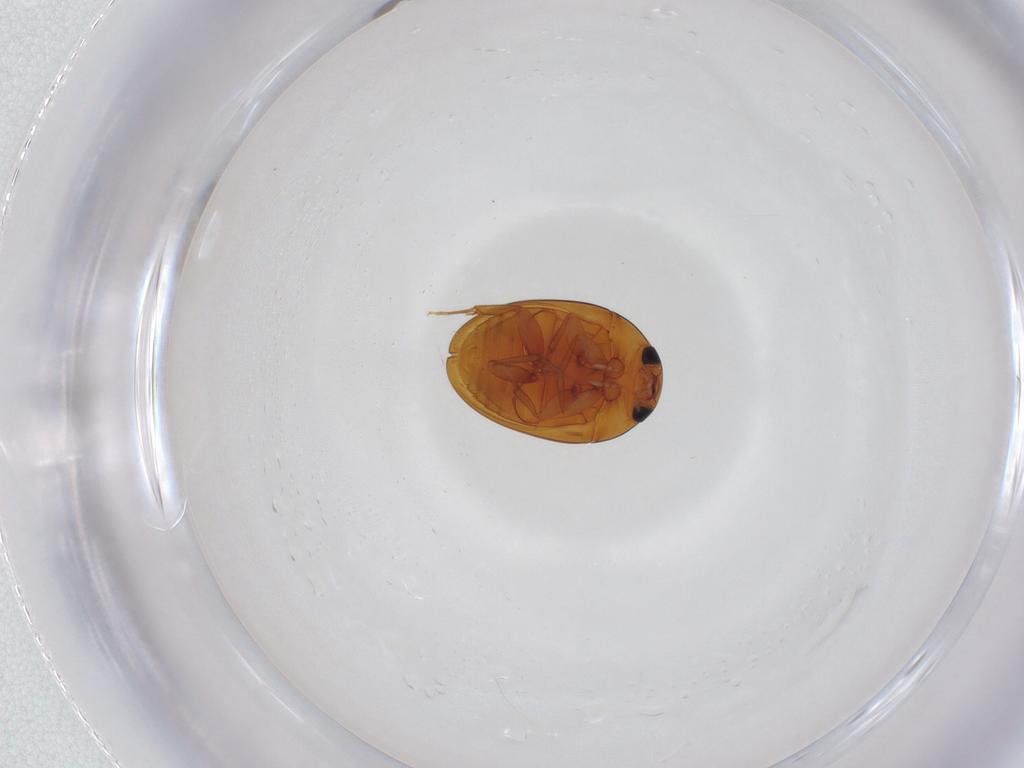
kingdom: Animalia
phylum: Arthropoda
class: Insecta
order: Coleoptera
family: Phalacridae
